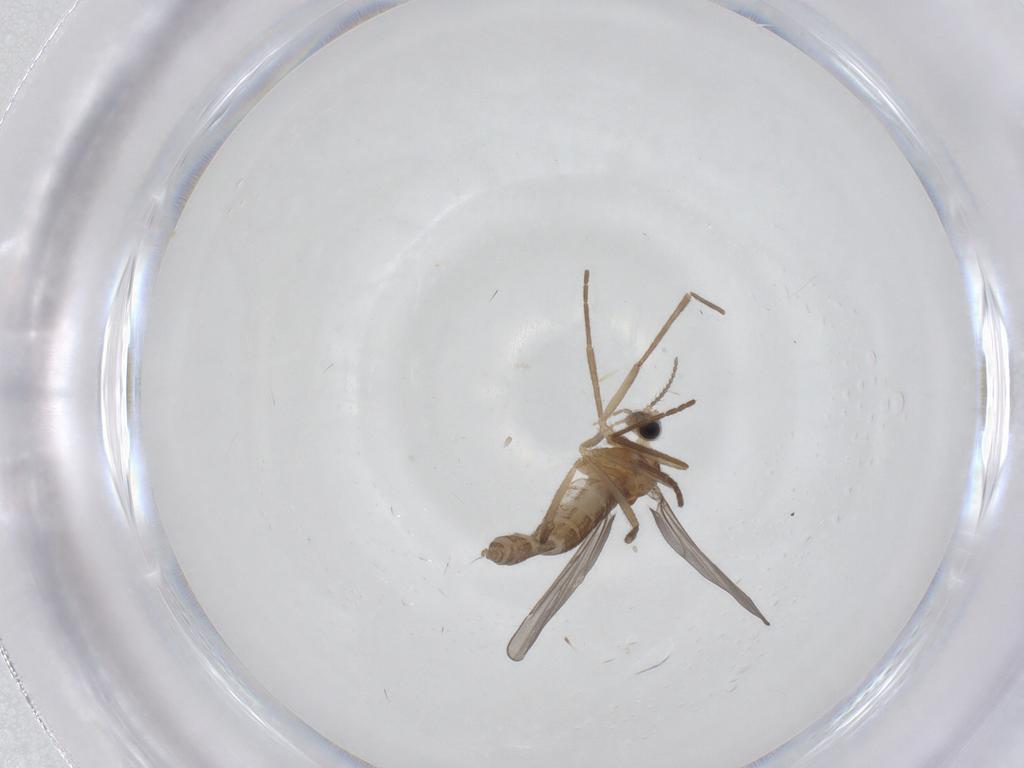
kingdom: Animalia
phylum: Arthropoda
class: Insecta
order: Diptera
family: Cecidomyiidae
